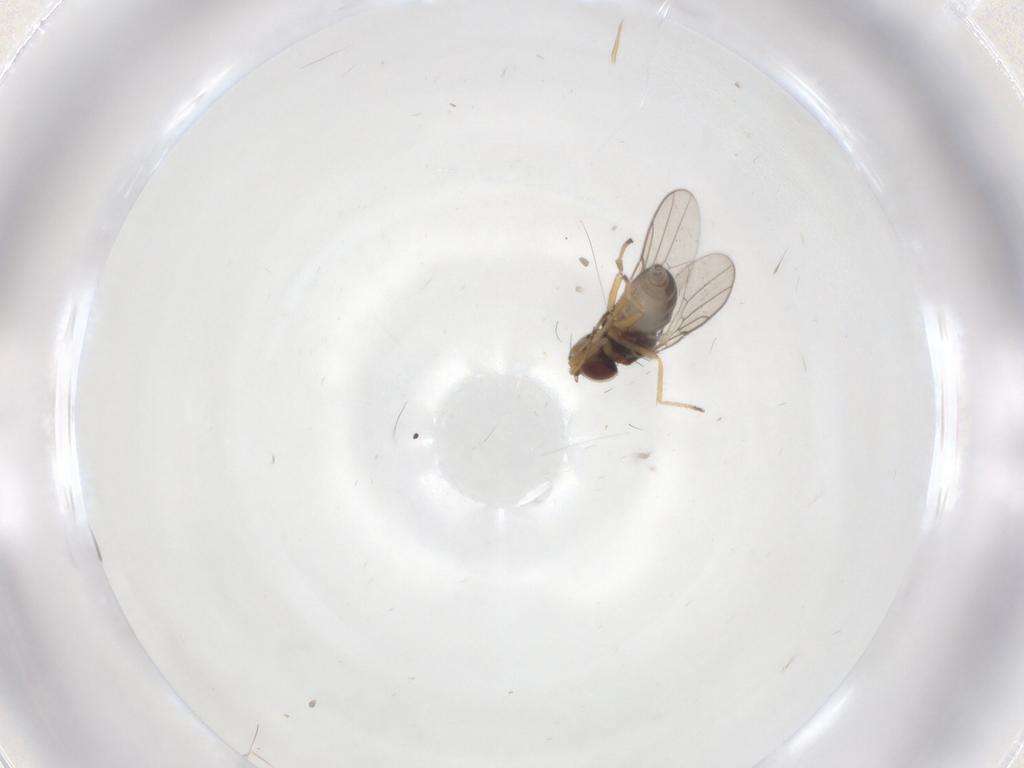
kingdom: Animalia
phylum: Arthropoda
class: Insecta
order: Diptera
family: Chloropidae
